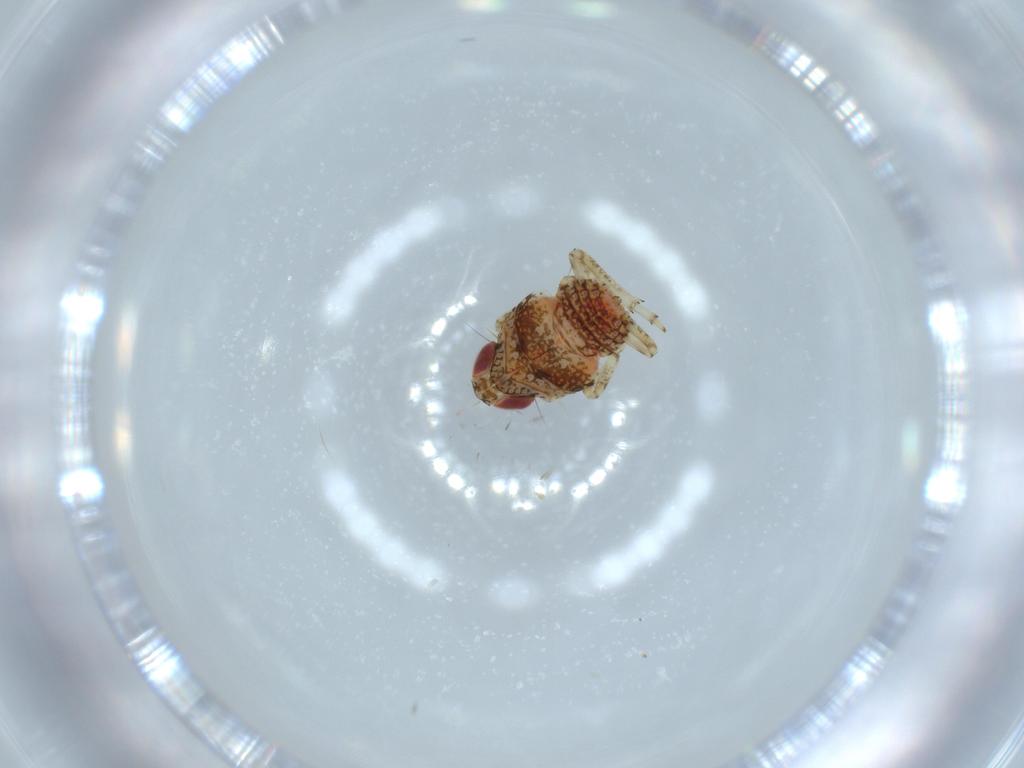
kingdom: Animalia
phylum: Arthropoda
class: Insecta
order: Hemiptera
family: Issidae
